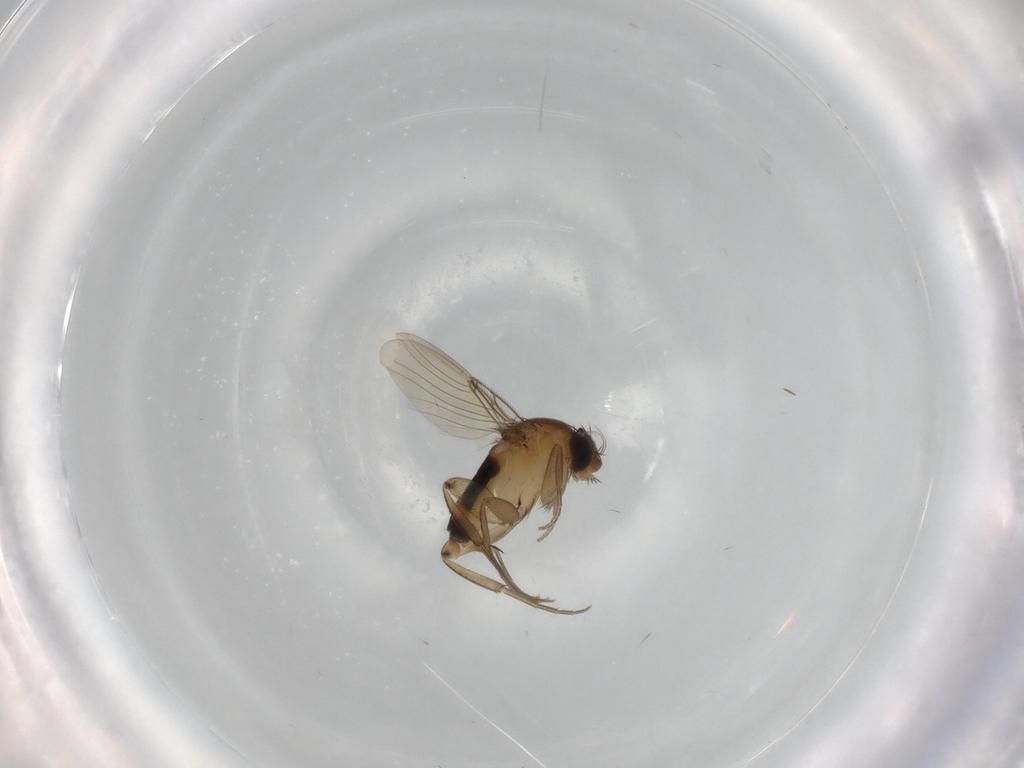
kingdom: Animalia
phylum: Arthropoda
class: Insecta
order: Diptera
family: Phoridae
